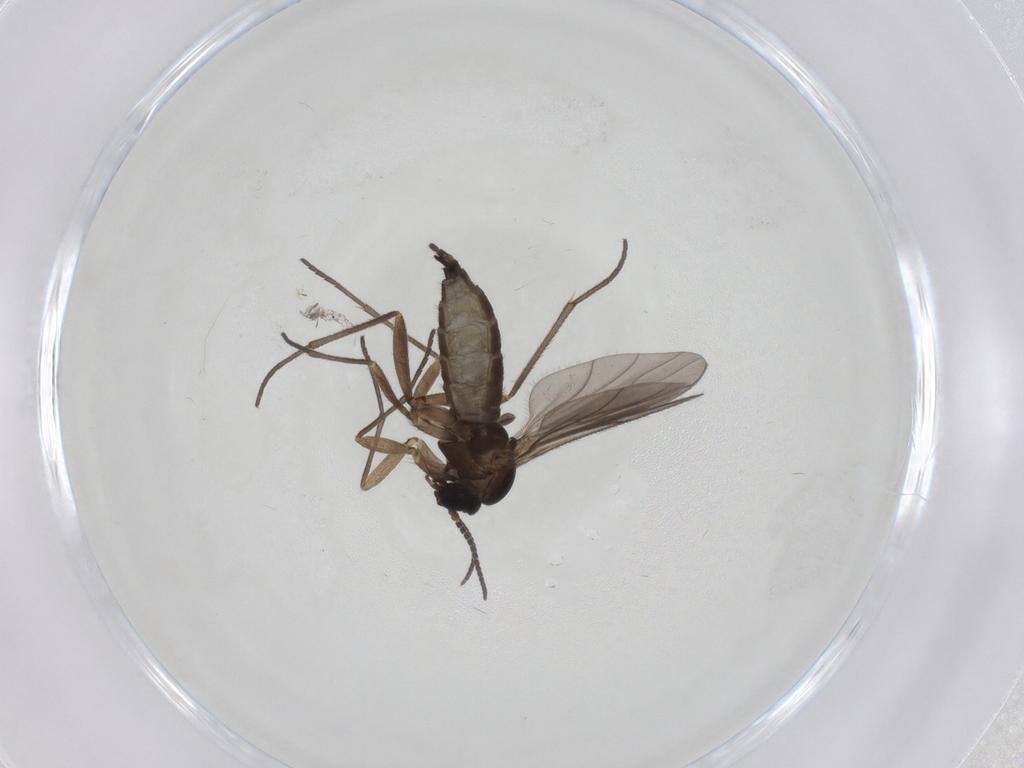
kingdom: Animalia
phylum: Arthropoda
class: Insecta
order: Diptera
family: Sciaridae
